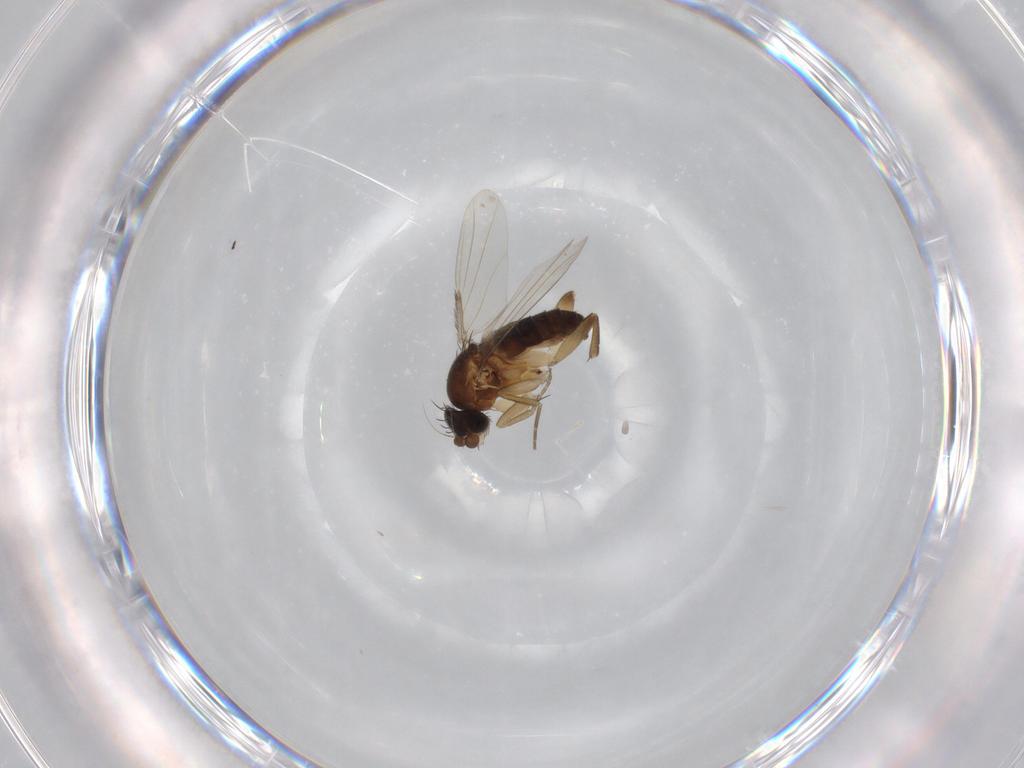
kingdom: Animalia
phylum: Arthropoda
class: Insecta
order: Diptera
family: Phoridae
